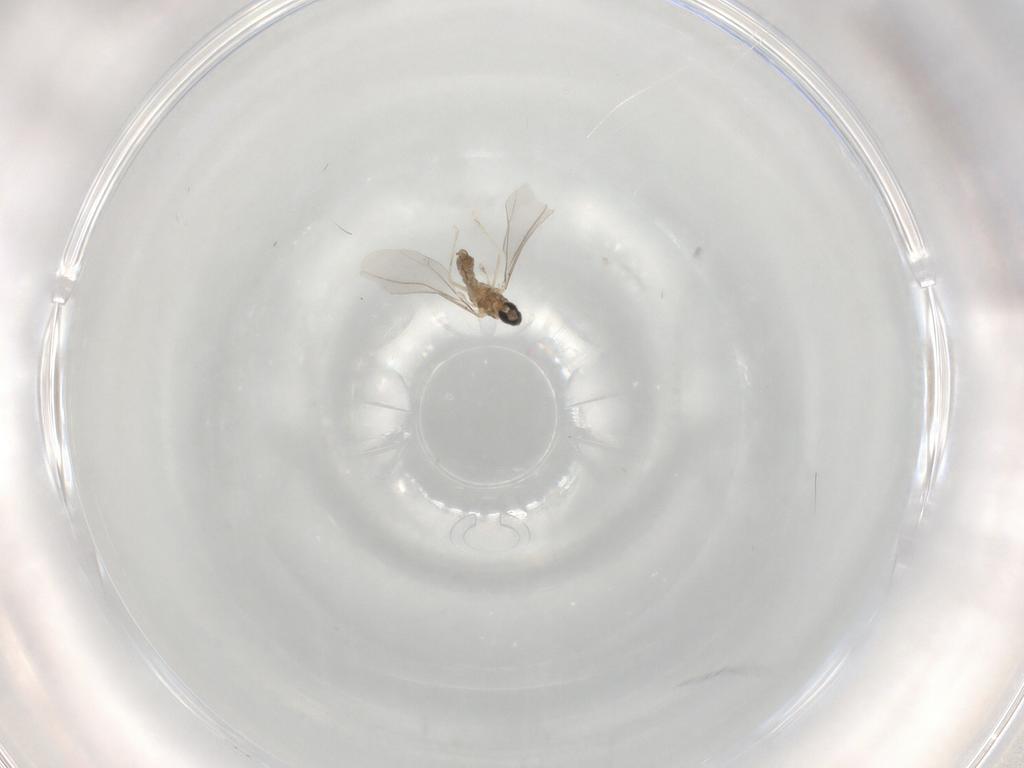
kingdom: Animalia
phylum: Arthropoda
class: Insecta
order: Diptera
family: Cecidomyiidae
